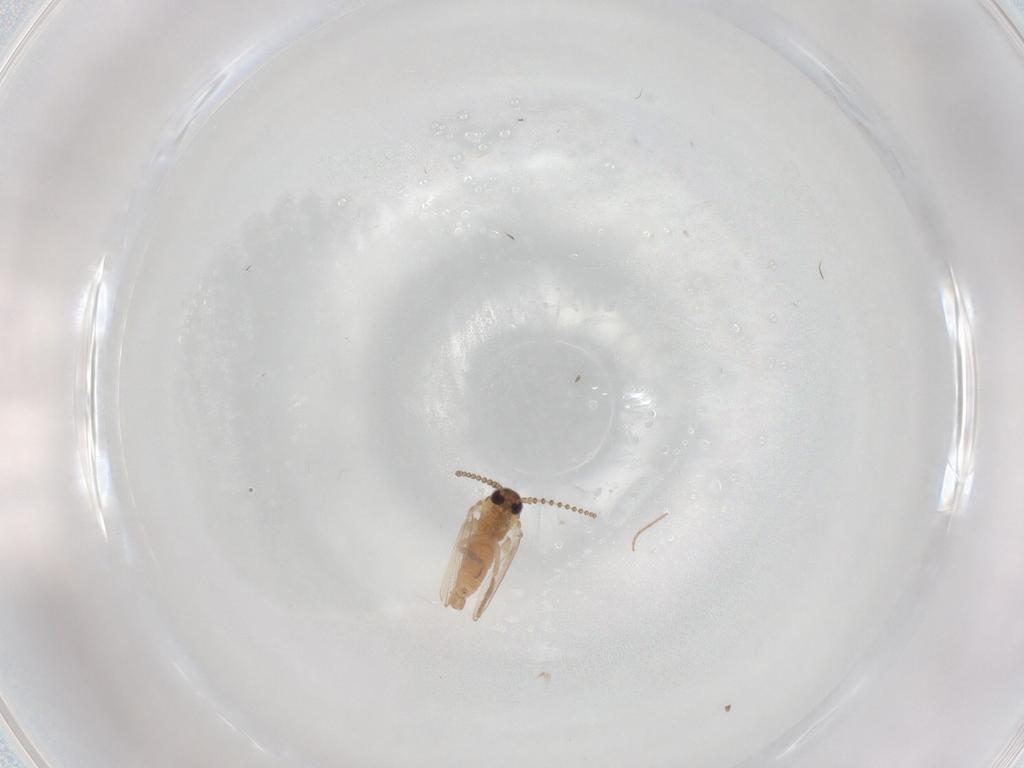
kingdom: Animalia
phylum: Arthropoda
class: Insecta
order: Diptera
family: Psychodidae
